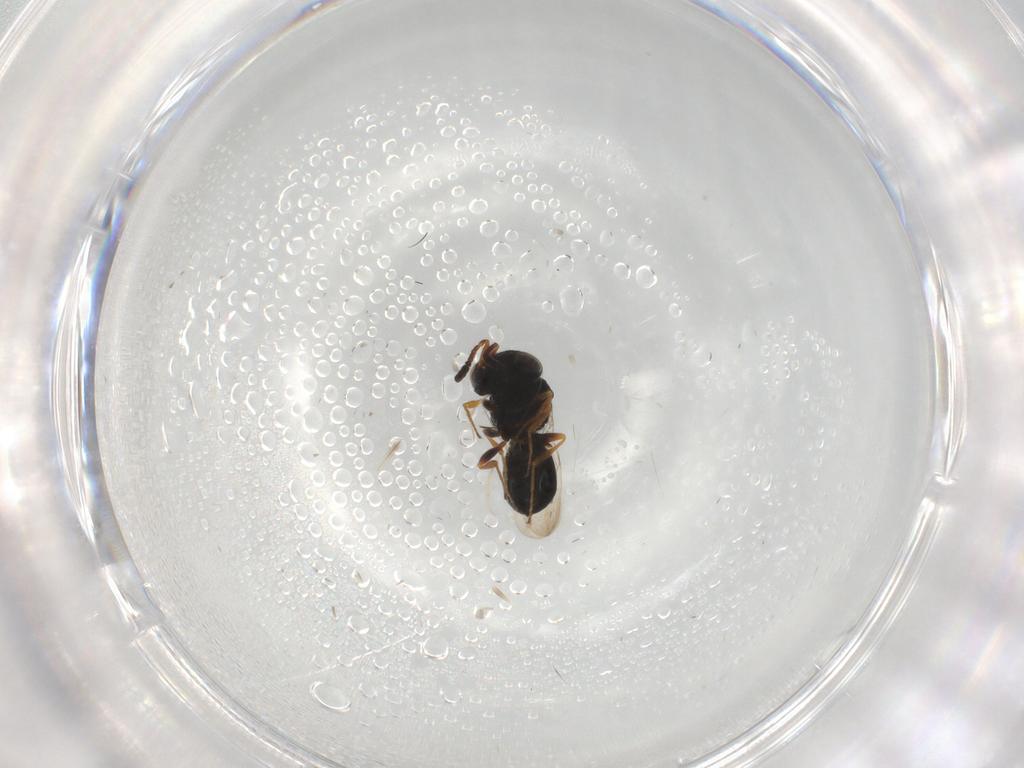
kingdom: Animalia
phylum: Arthropoda
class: Insecta
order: Hymenoptera
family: Scelionidae
